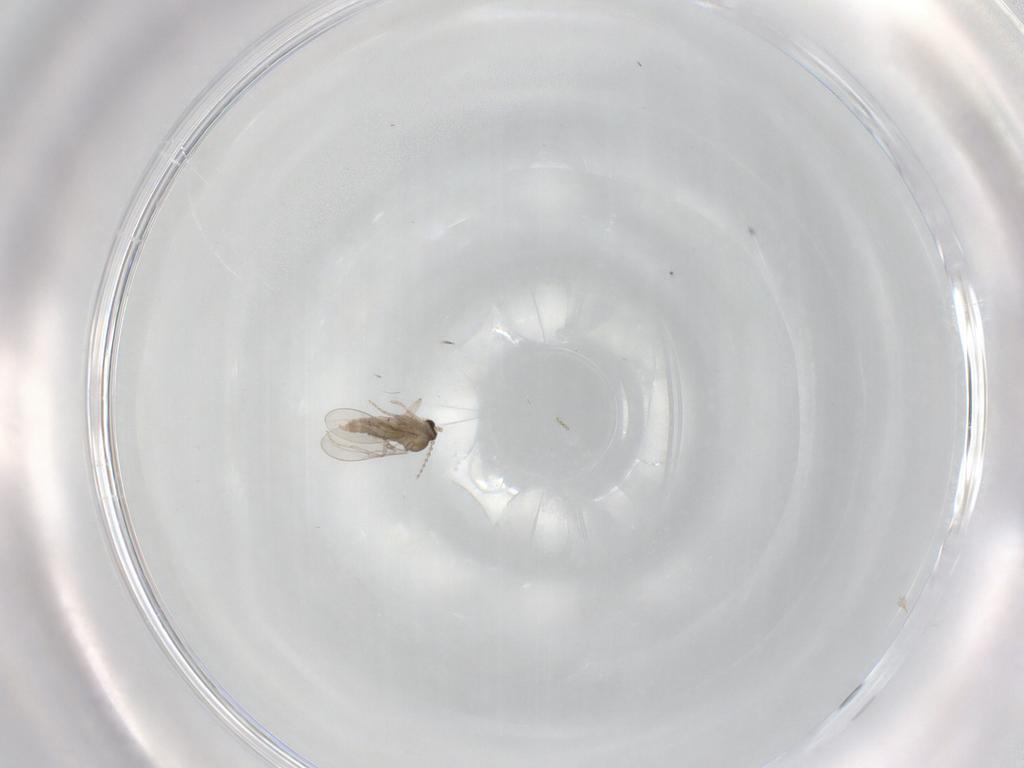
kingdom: Animalia
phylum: Arthropoda
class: Insecta
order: Diptera
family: Cecidomyiidae
